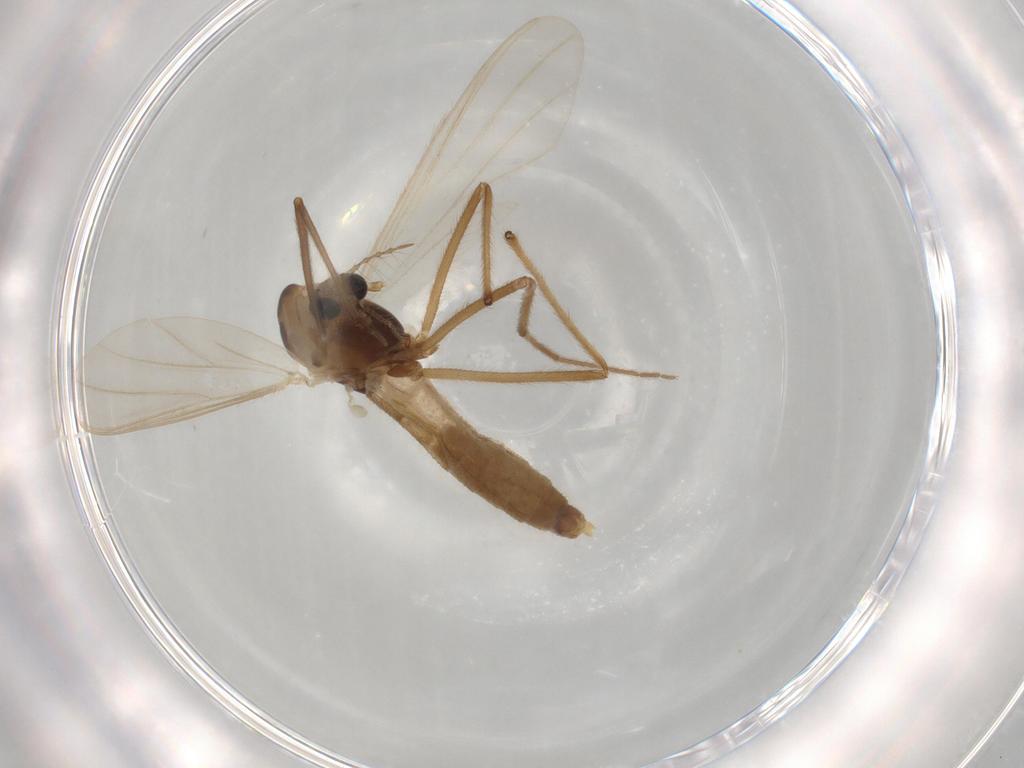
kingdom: Animalia
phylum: Arthropoda
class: Insecta
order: Diptera
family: Chironomidae
